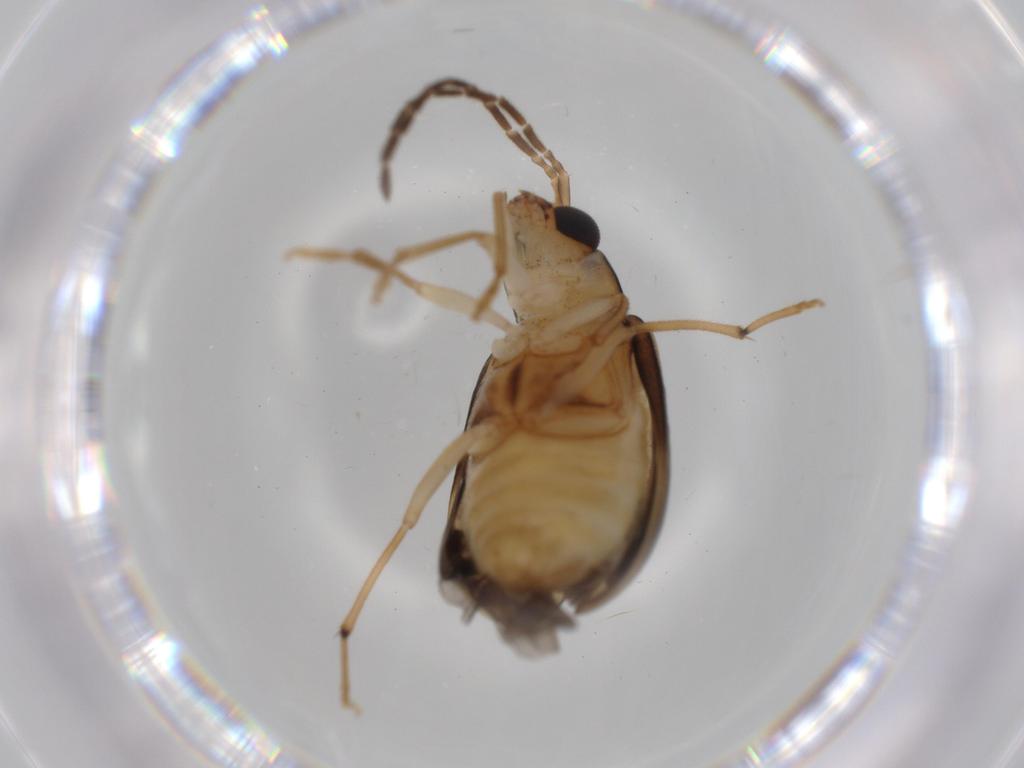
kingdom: Animalia
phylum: Arthropoda
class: Insecta
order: Coleoptera
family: Chrysomelidae
